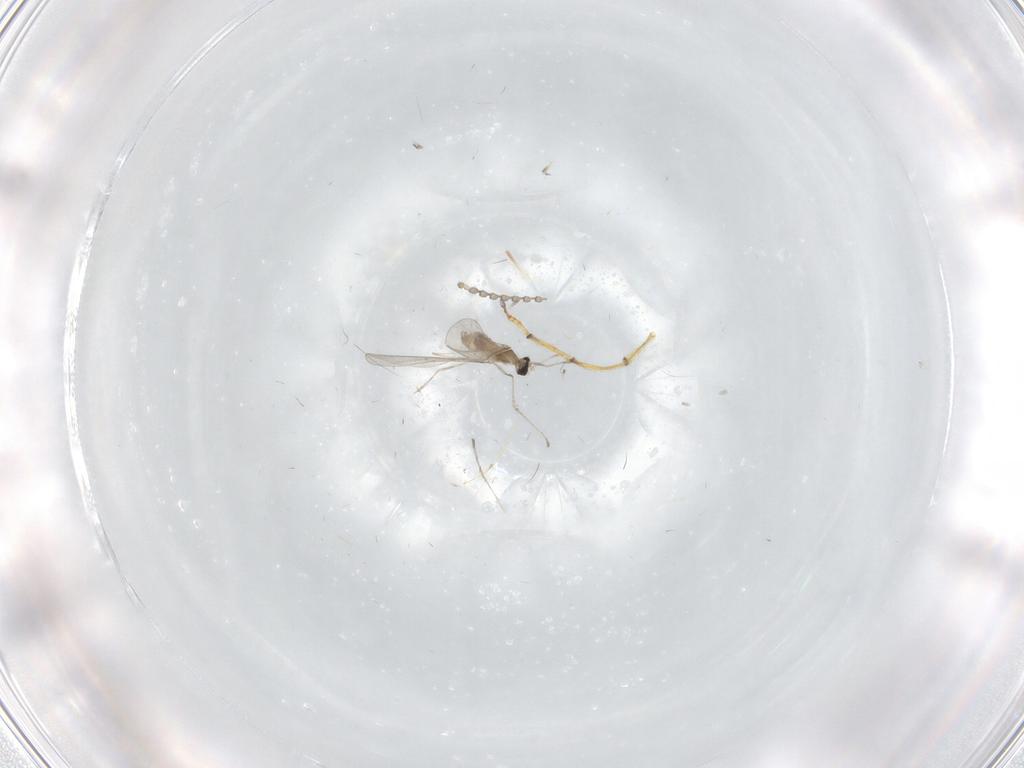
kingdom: Animalia
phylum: Arthropoda
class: Insecta
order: Diptera
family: Cecidomyiidae
